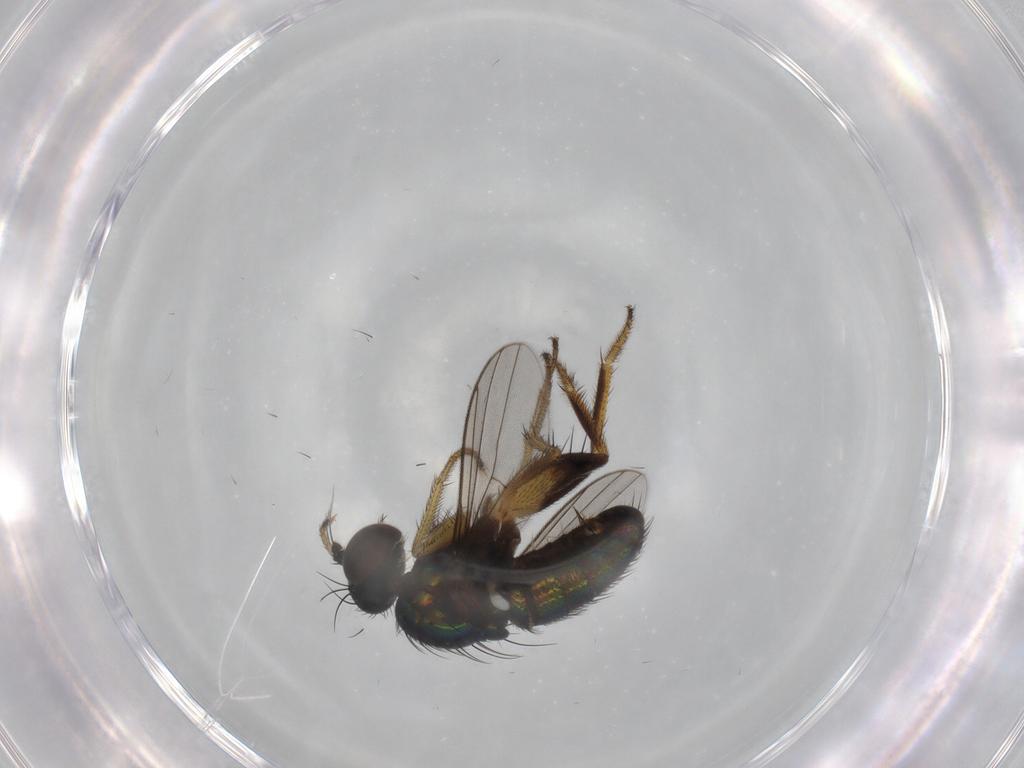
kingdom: Animalia
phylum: Arthropoda
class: Insecta
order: Diptera
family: Dolichopodidae
